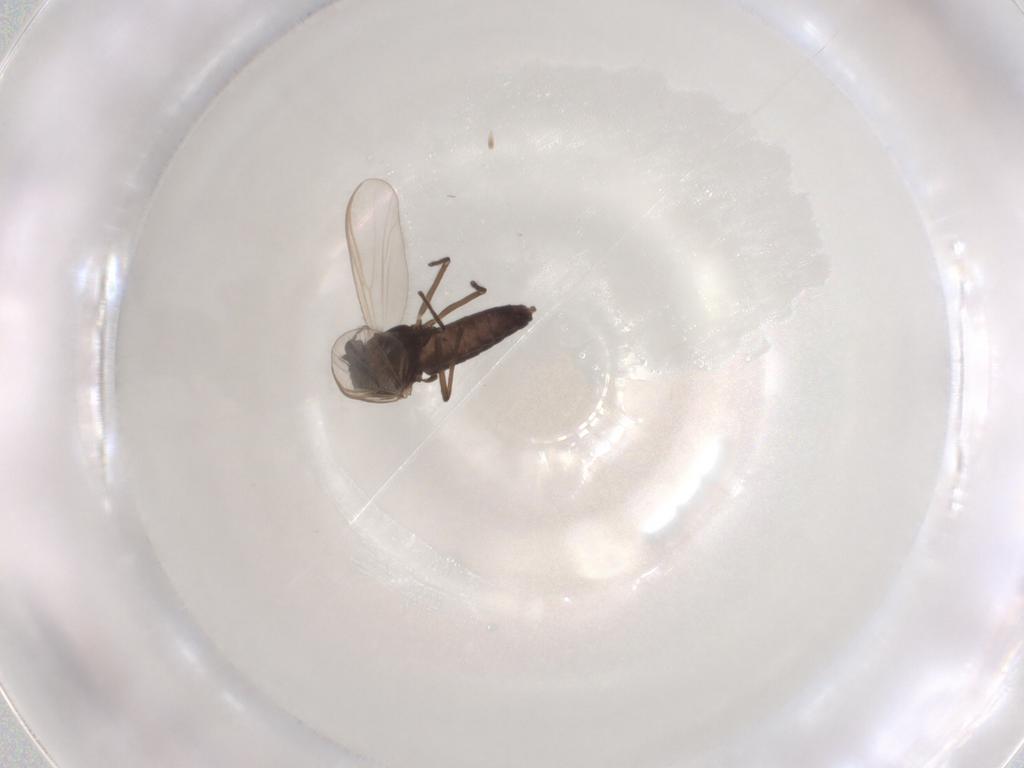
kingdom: Animalia
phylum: Arthropoda
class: Insecta
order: Diptera
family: Chironomidae
